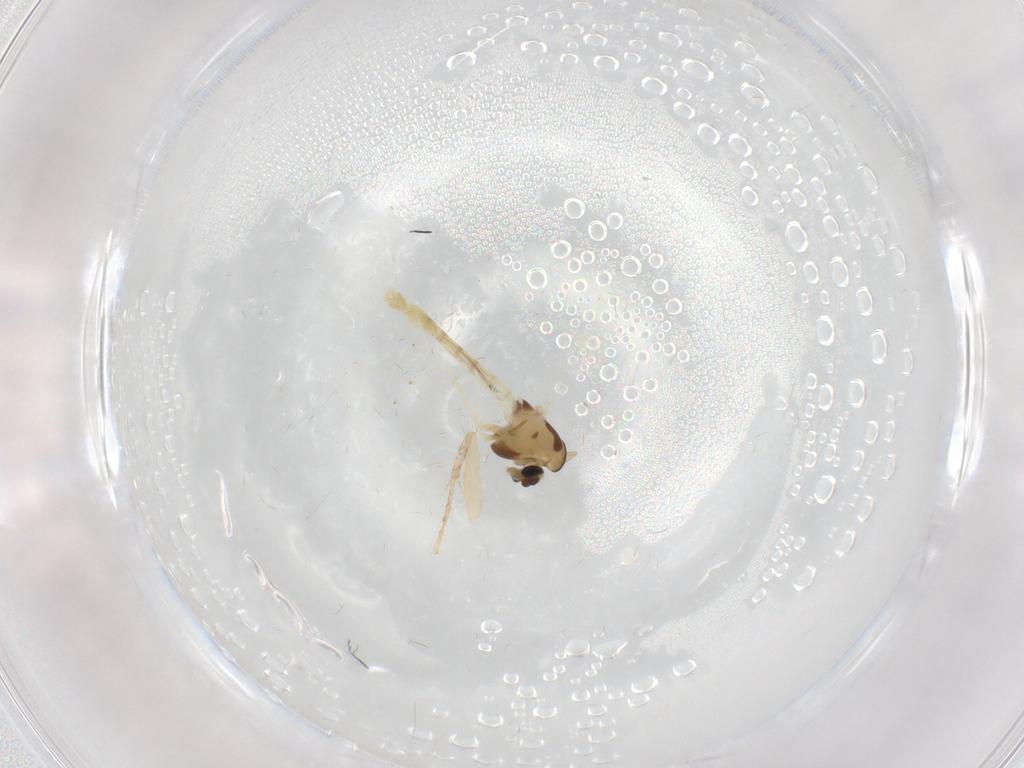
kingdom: Animalia
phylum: Arthropoda
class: Insecta
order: Diptera
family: Chironomidae
